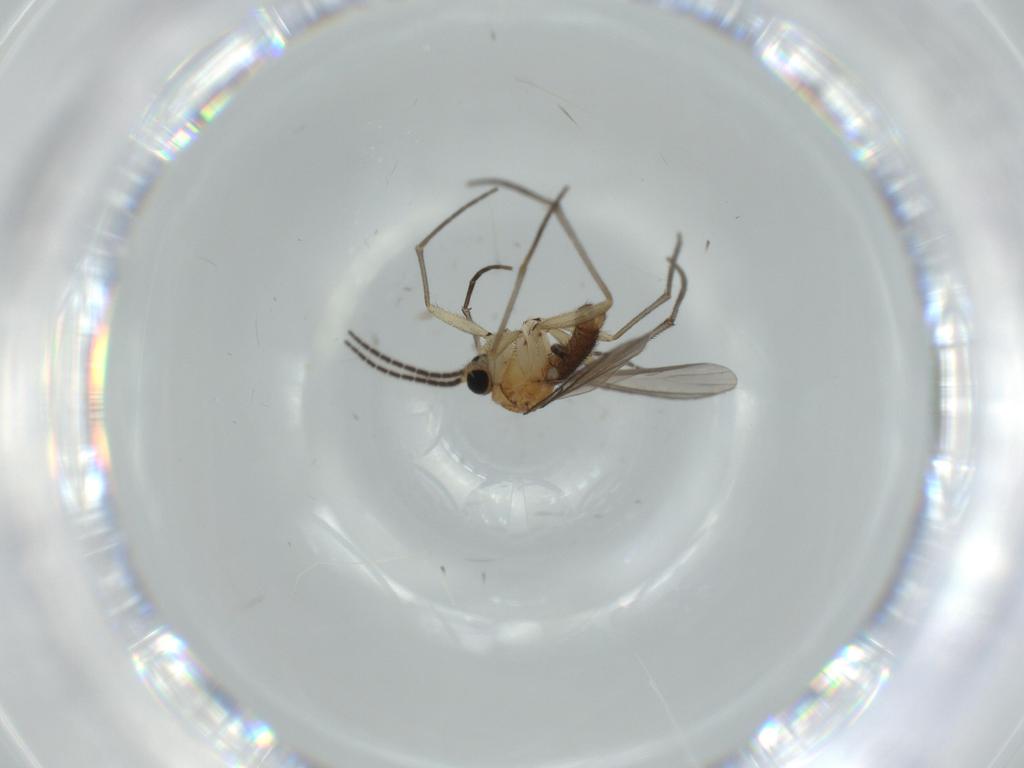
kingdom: Animalia
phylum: Arthropoda
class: Insecta
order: Diptera
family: Sciaridae
